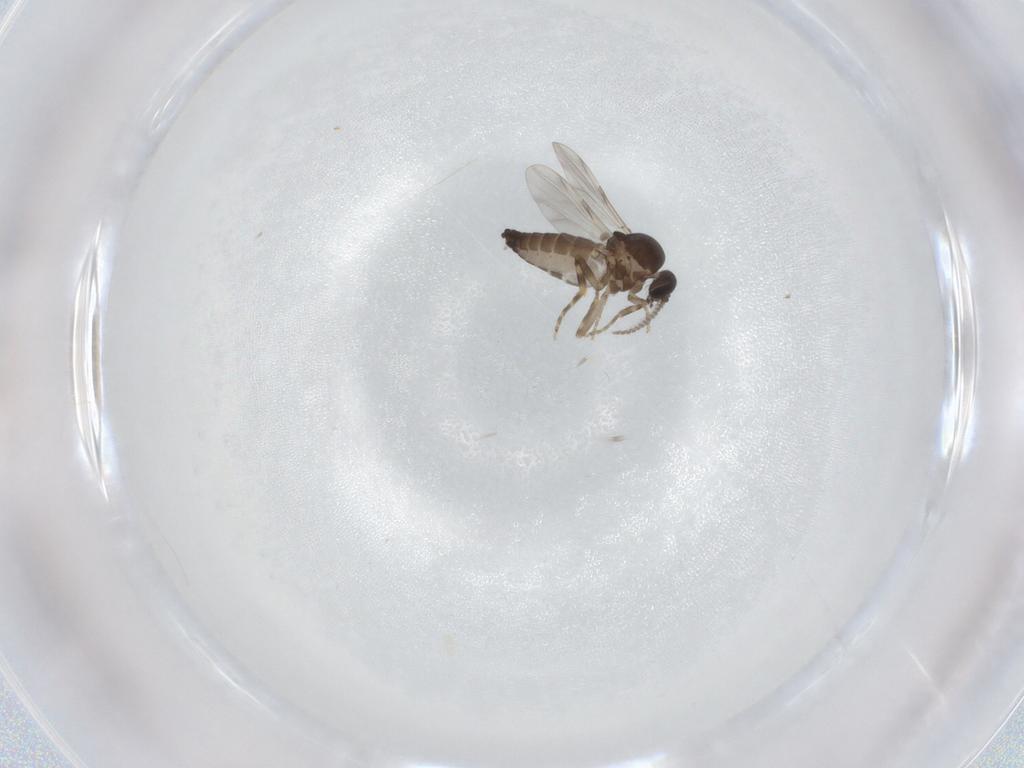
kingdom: Animalia
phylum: Arthropoda
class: Insecta
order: Diptera
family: Ceratopogonidae
